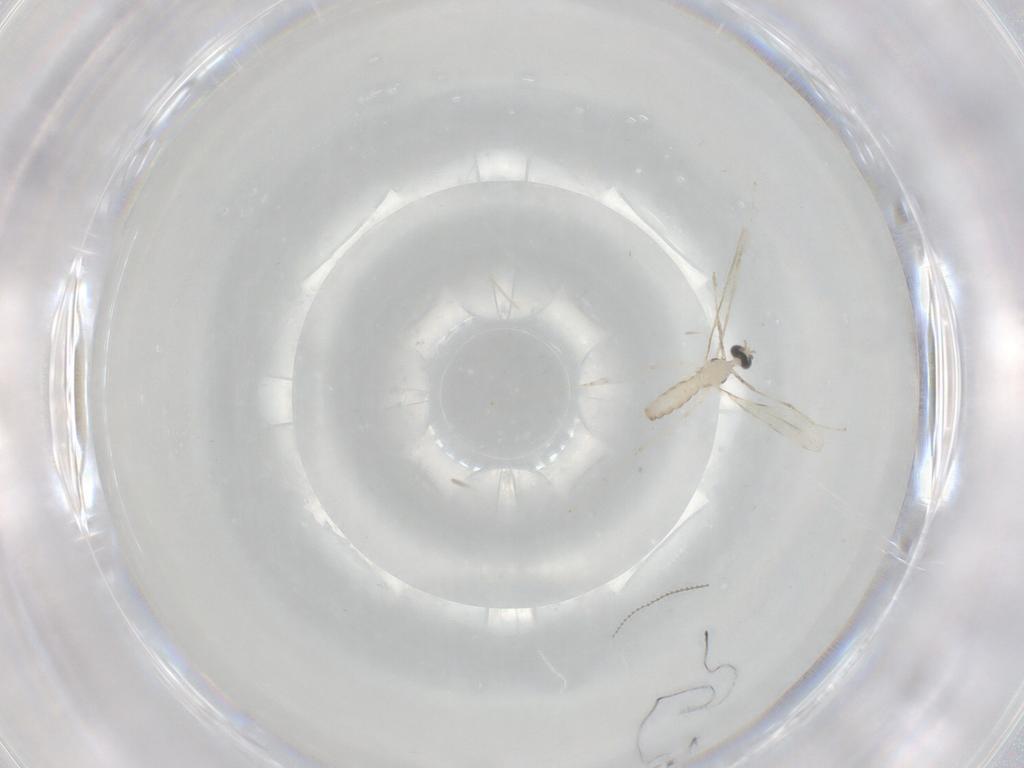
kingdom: Animalia
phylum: Arthropoda
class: Insecta
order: Diptera
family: Cecidomyiidae
